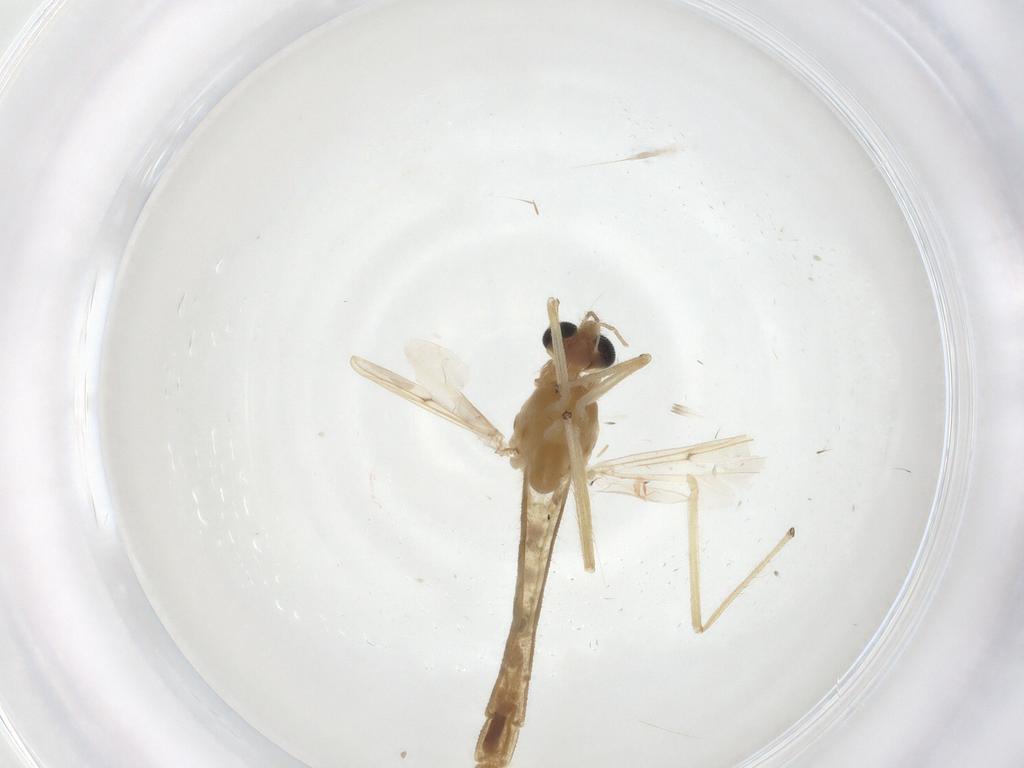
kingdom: Animalia
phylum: Arthropoda
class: Insecta
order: Diptera
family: Chironomidae
